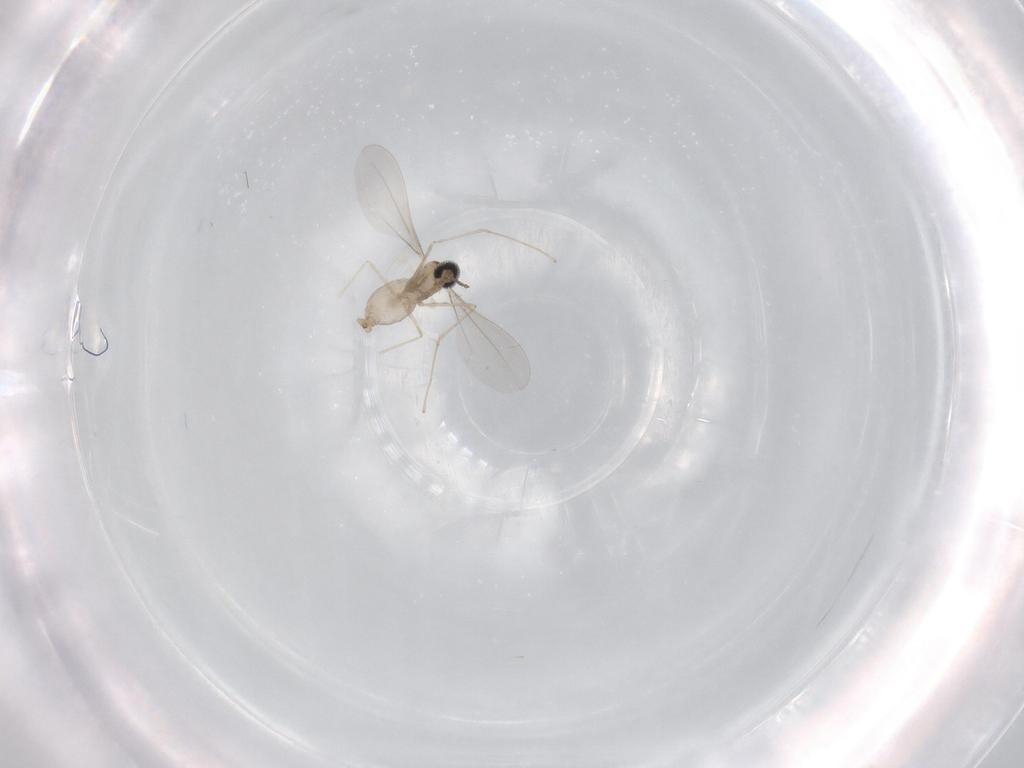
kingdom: Animalia
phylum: Arthropoda
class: Insecta
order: Diptera
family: Cecidomyiidae
